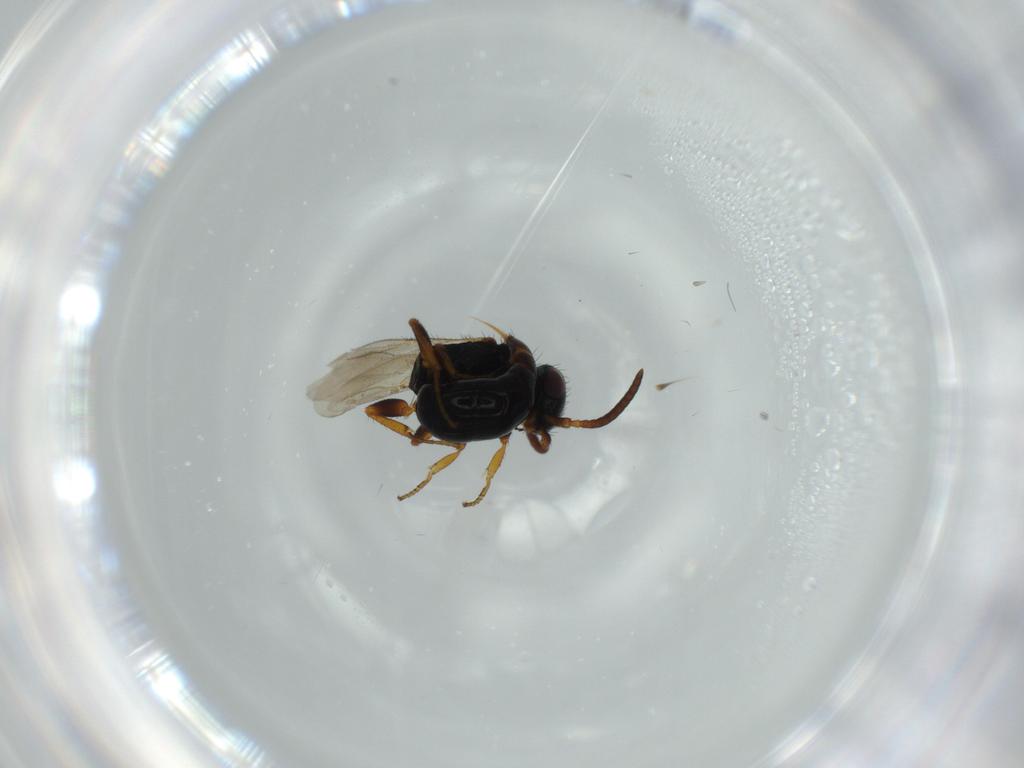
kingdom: Animalia
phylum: Arthropoda
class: Insecta
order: Hymenoptera
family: Bethylidae
